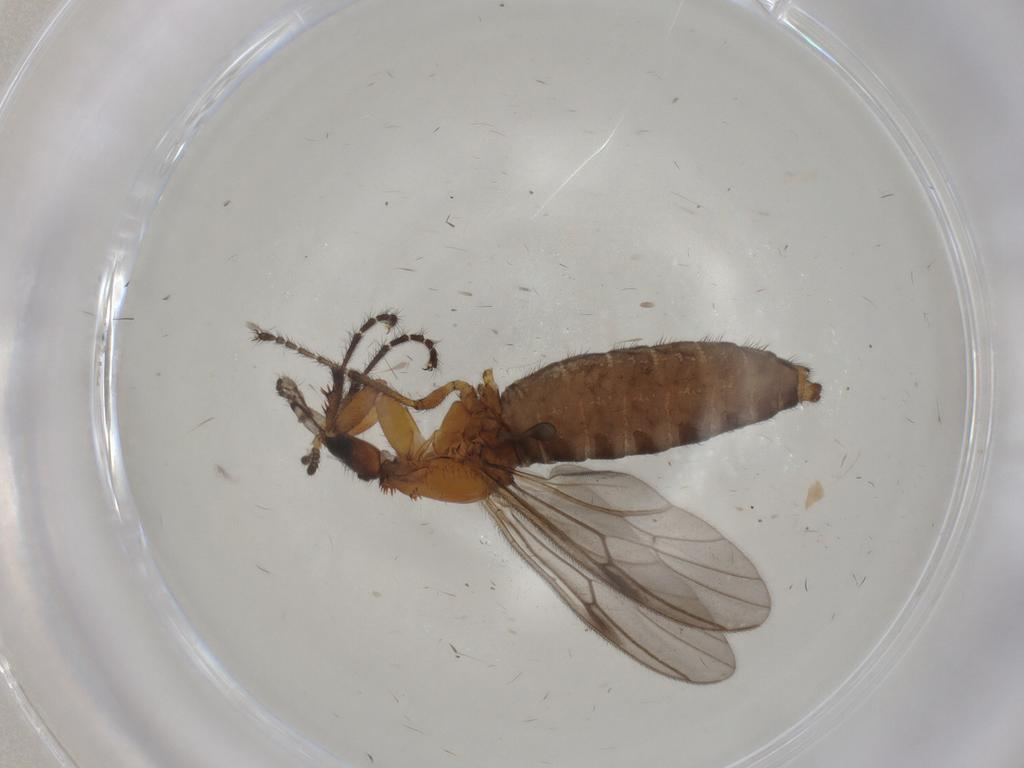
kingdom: Animalia
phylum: Arthropoda
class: Insecta
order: Diptera
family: Bibionidae
